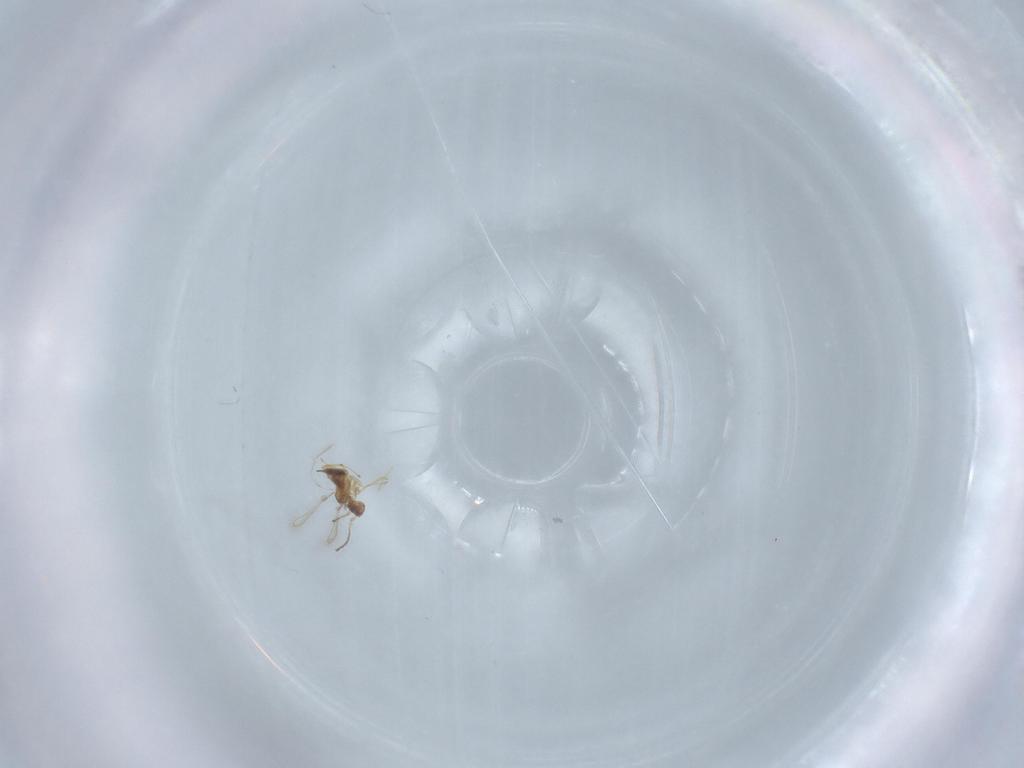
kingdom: Animalia
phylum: Arthropoda
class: Insecta
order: Hymenoptera
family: Mymaridae
